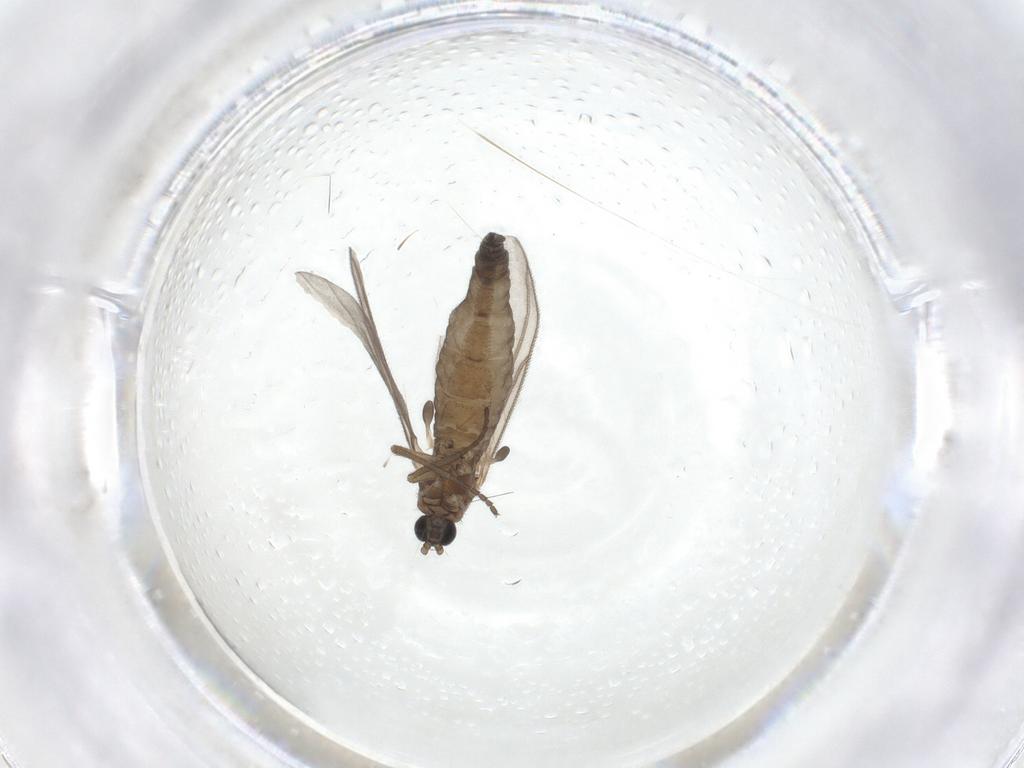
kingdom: Animalia
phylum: Arthropoda
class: Insecta
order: Diptera
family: Sciaridae
